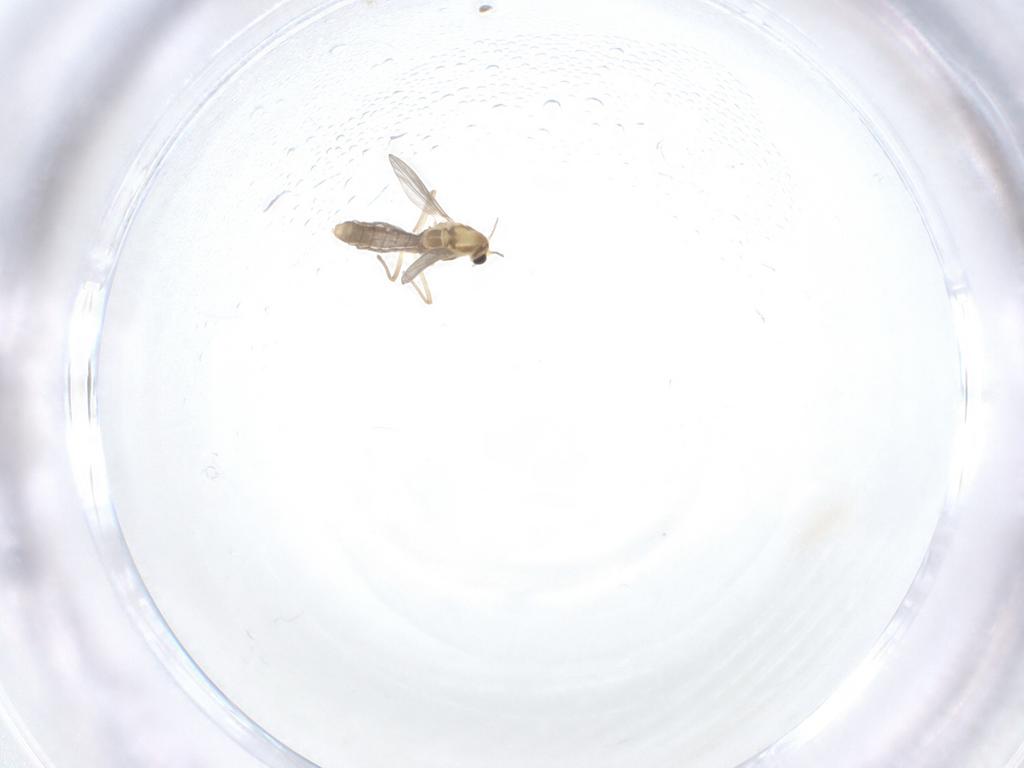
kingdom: Animalia
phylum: Arthropoda
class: Insecta
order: Diptera
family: Chironomidae
